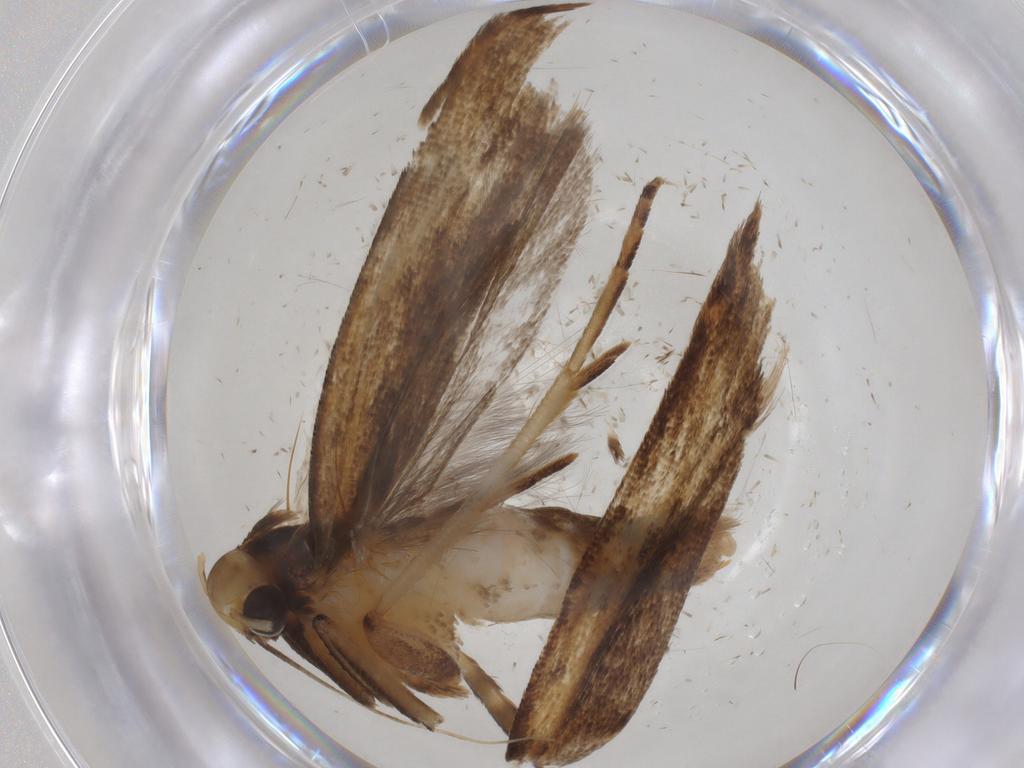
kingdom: Animalia
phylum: Arthropoda
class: Insecta
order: Lepidoptera
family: Gelechiidae
